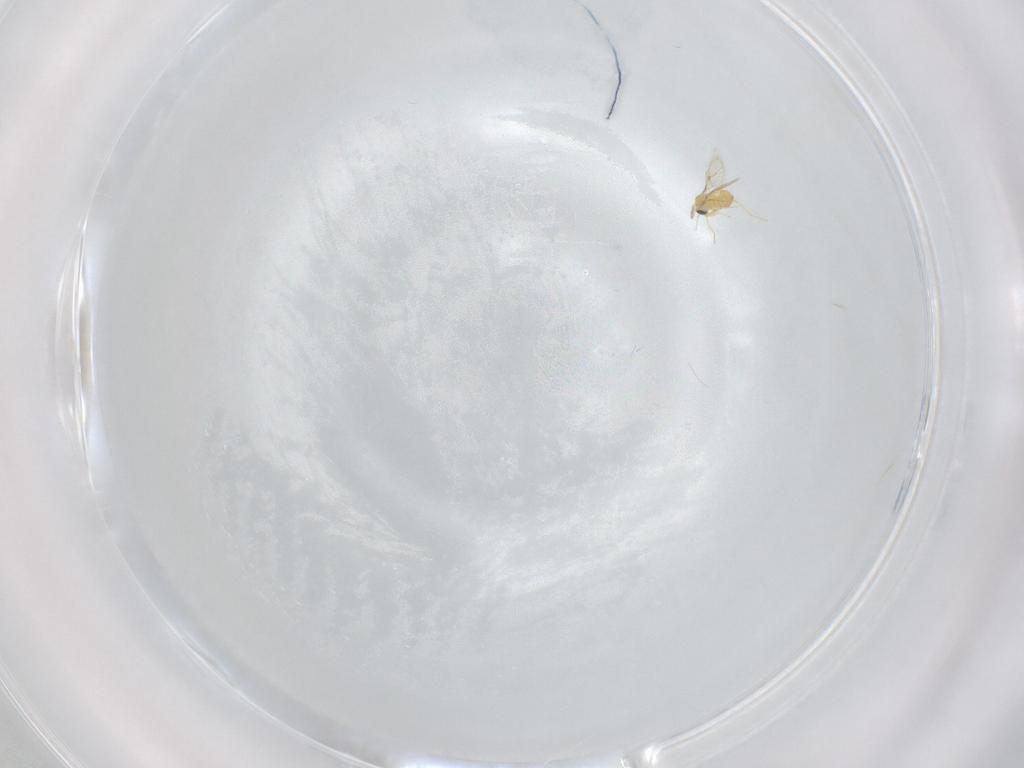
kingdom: Animalia
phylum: Arthropoda
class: Insecta
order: Hymenoptera
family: Trichogrammatidae
